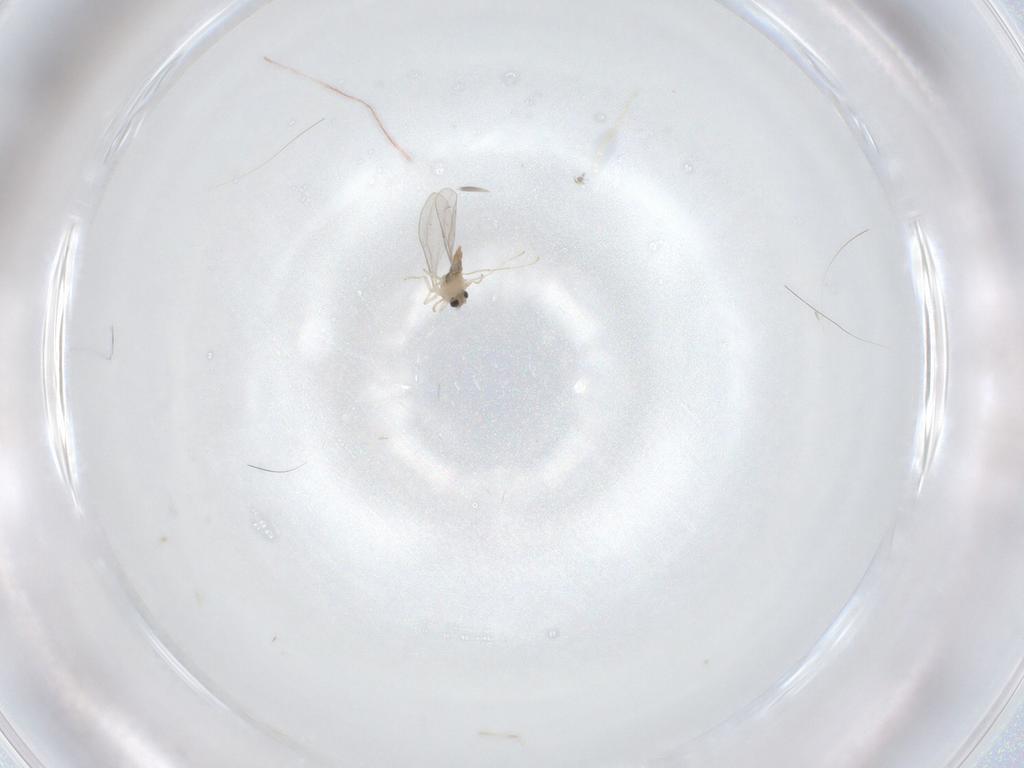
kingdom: Animalia
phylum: Arthropoda
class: Insecta
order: Diptera
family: Cecidomyiidae
